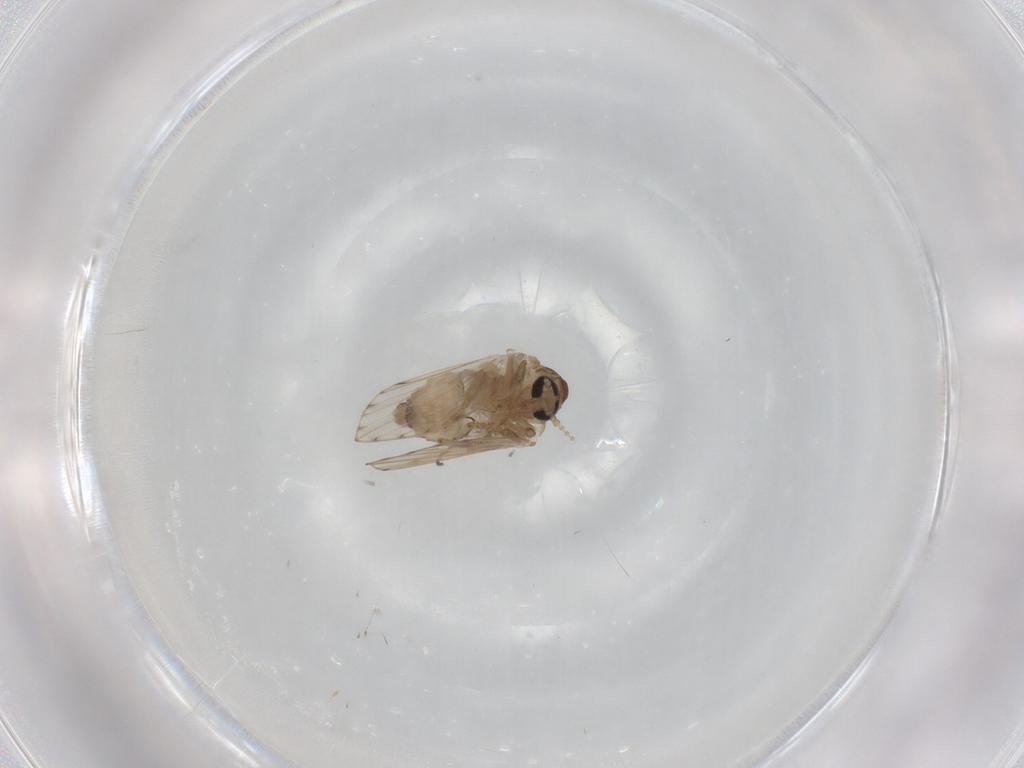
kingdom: Animalia
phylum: Arthropoda
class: Insecta
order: Diptera
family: Psychodidae
